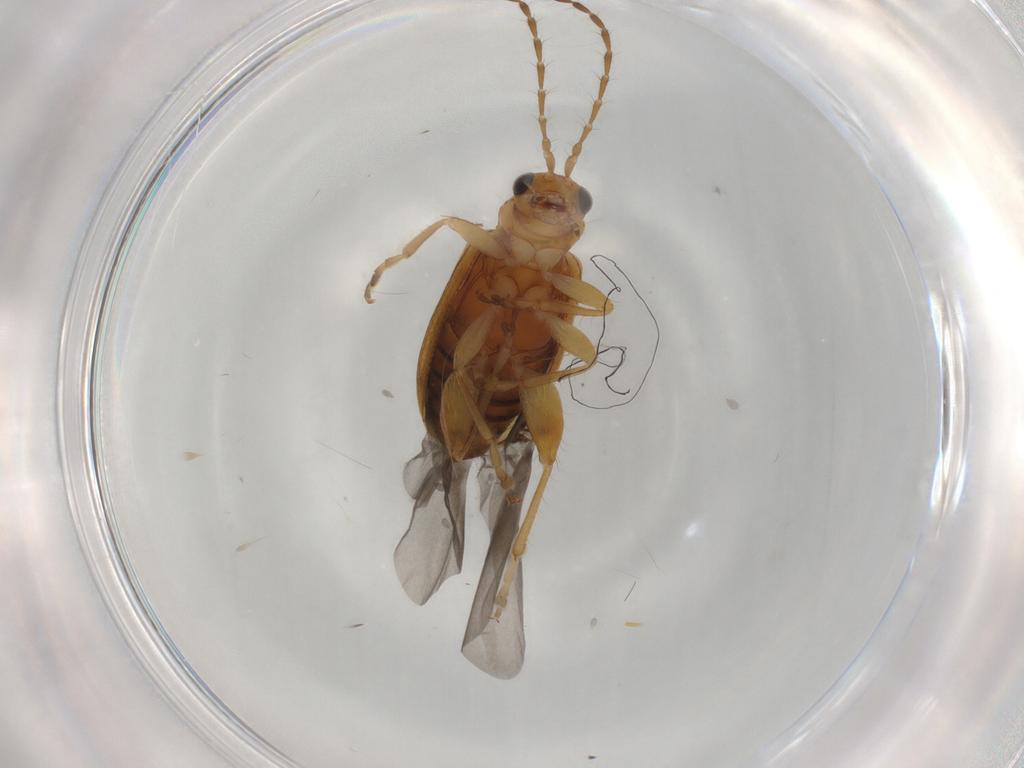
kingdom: Animalia
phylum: Arthropoda
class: Insecta
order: Coleoptera
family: Chrysomelidae
